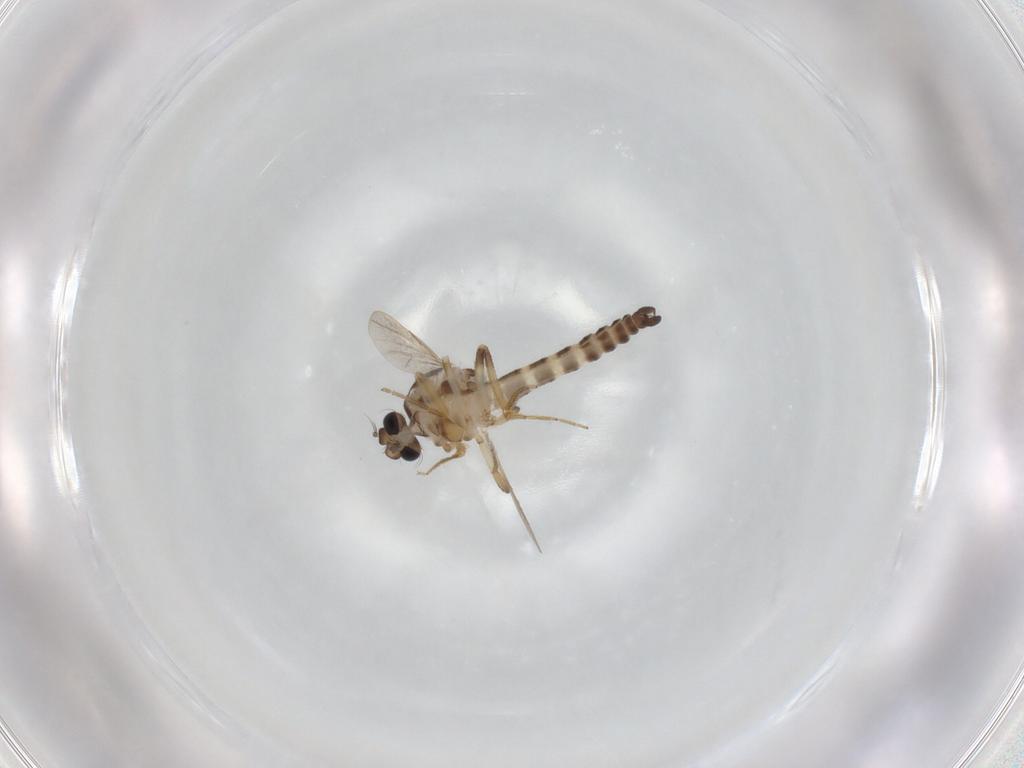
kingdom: Animalia
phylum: Arthropoda
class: Insecta
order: Diptera
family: Ceratopogonidae
